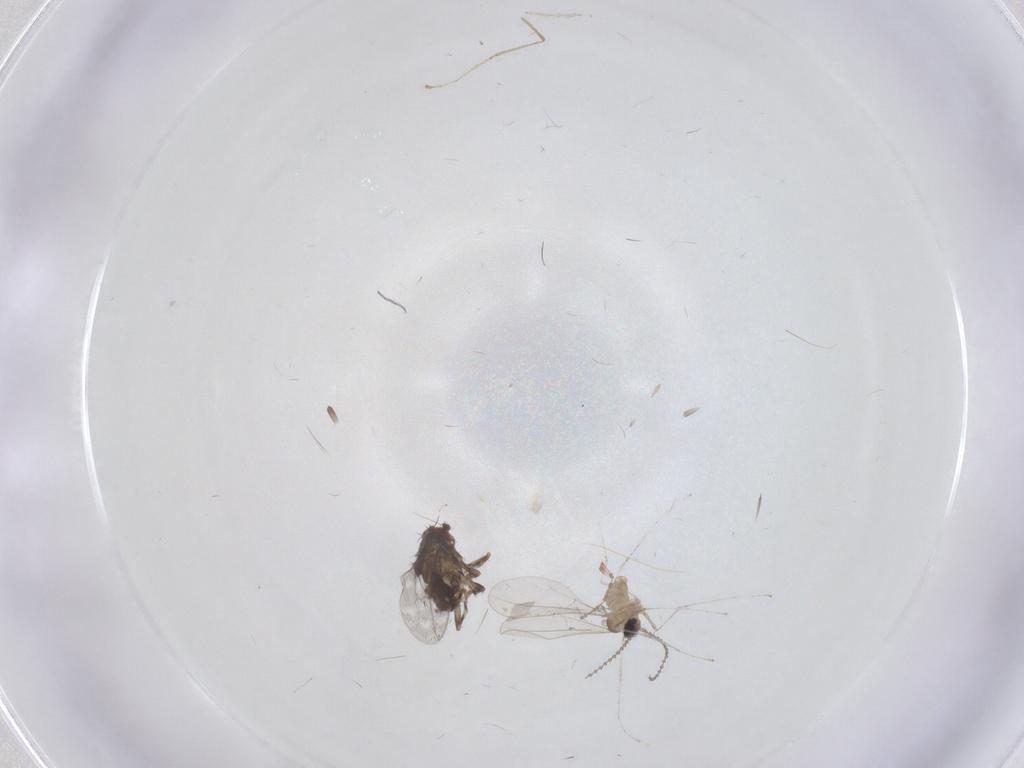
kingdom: Animalia
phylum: Arthropoda
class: Insecta
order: Diptera
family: Sphaeroceridae
